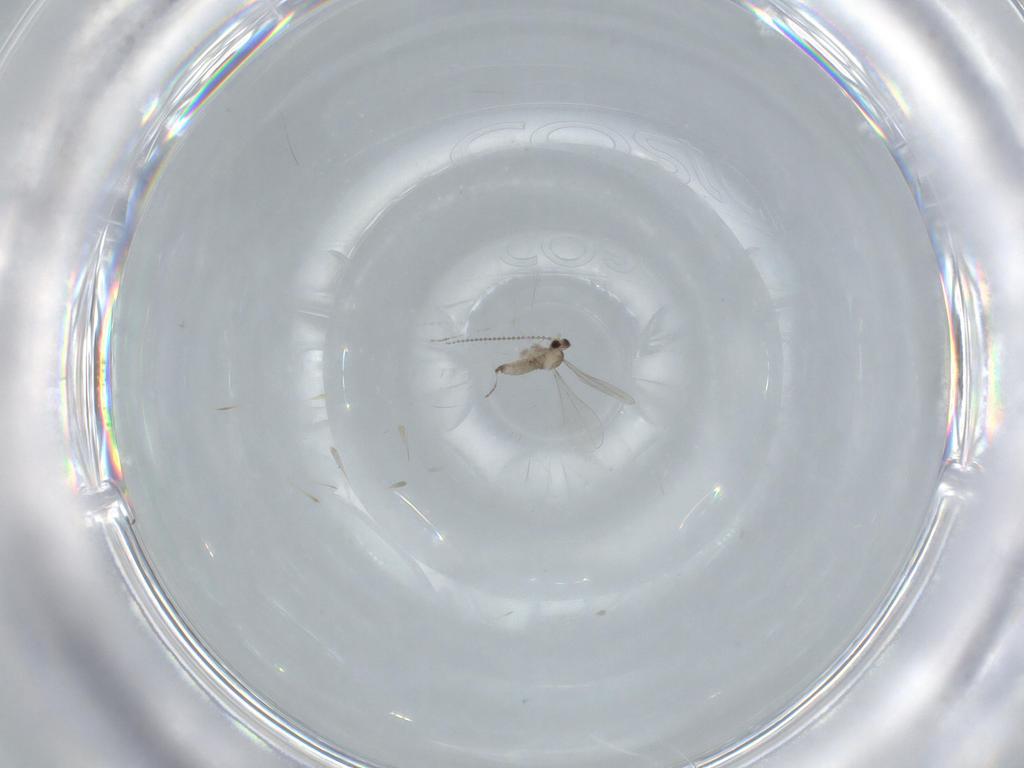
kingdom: Animalia
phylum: Arthropoda
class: Insecta
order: Diptera
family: Cecidomyiidae
